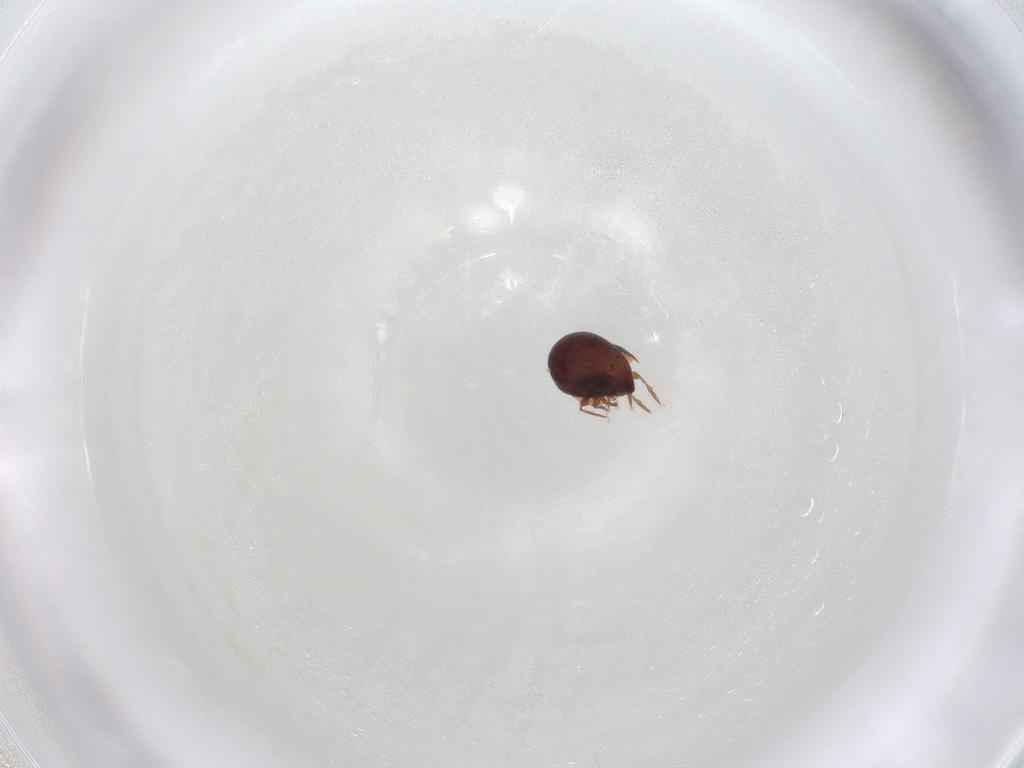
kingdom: Animalia
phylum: Arthropoda
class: Arachnida
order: Sarcoptiformes
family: Galumnidae
